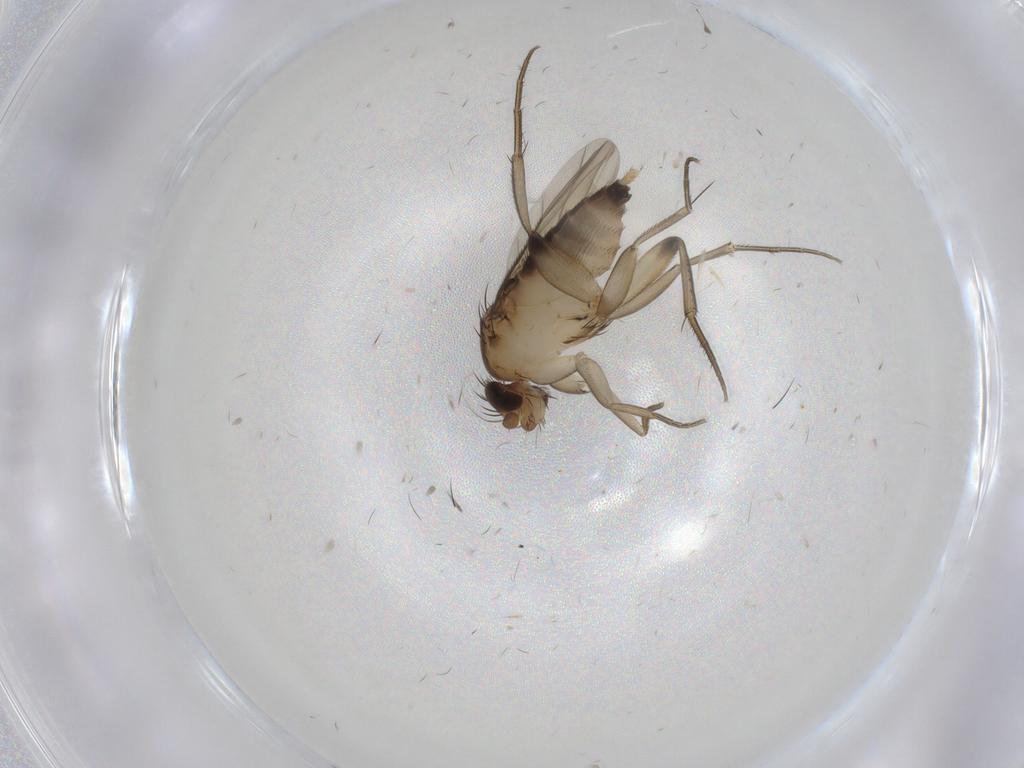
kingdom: Animalia
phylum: Arthropoda
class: Insecta
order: Diptera
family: Phoridae
